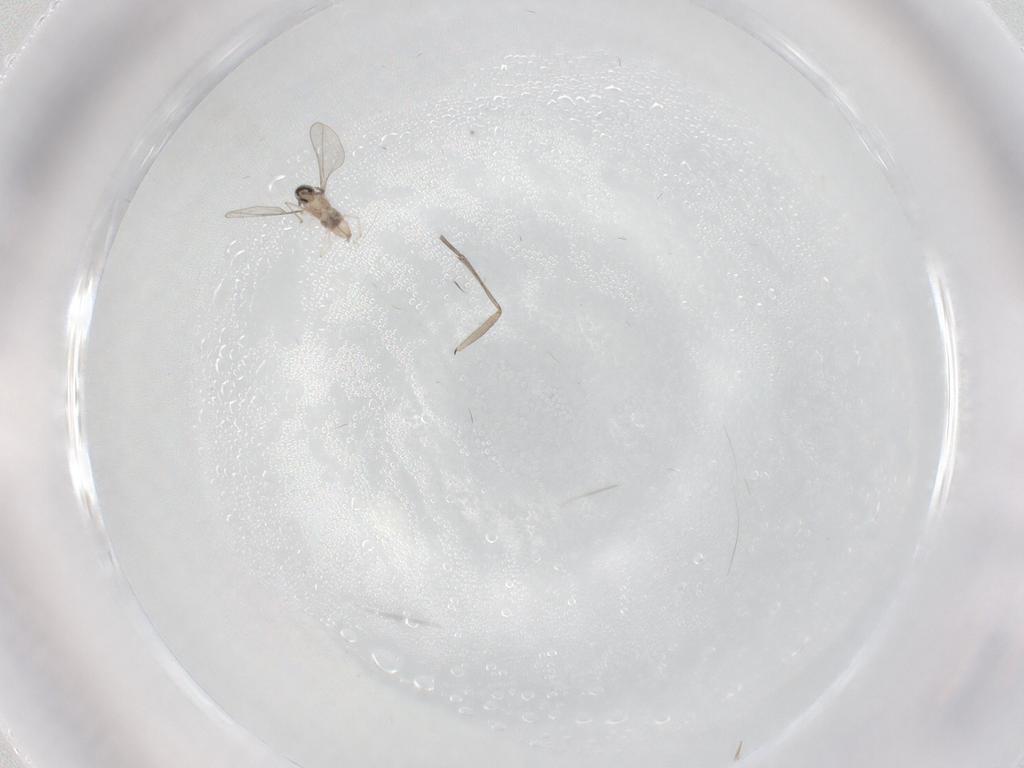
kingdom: Animalia
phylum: Arthropoda
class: Insecta
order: Diptera
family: Cecidomyiidae
